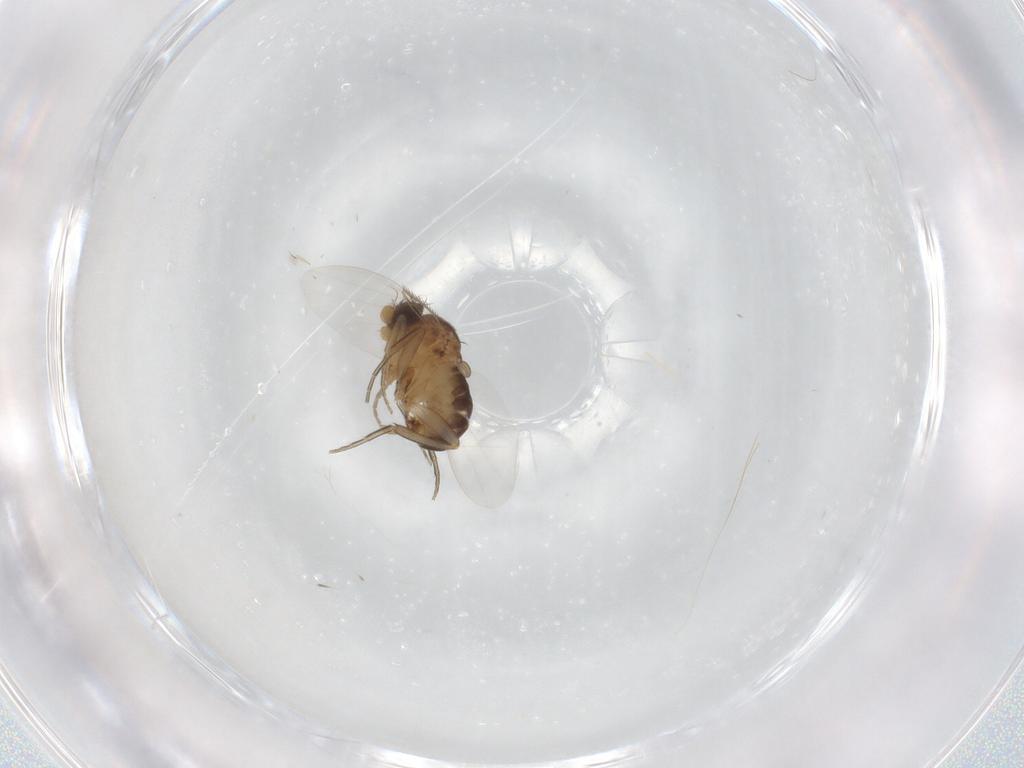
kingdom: Animalia
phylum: Arthropoda
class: Insecta
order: Diptera
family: Phoridae
